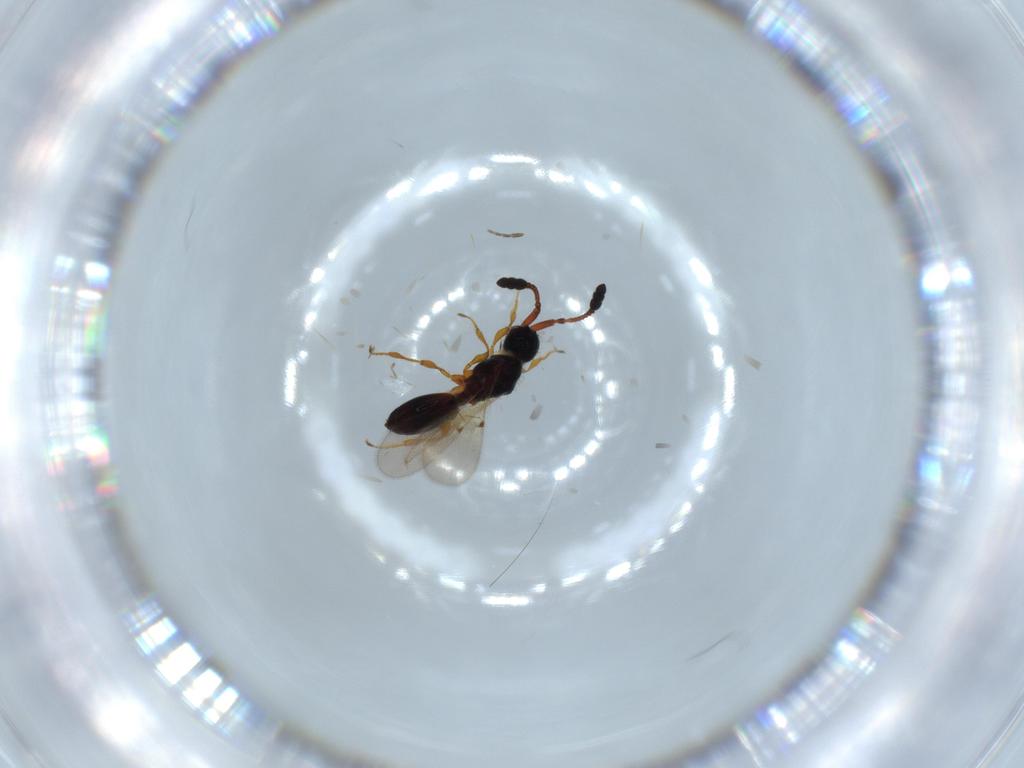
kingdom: Animalia
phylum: Arthropoda
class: Insecta
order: Hymenoptera
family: Diapriidae
